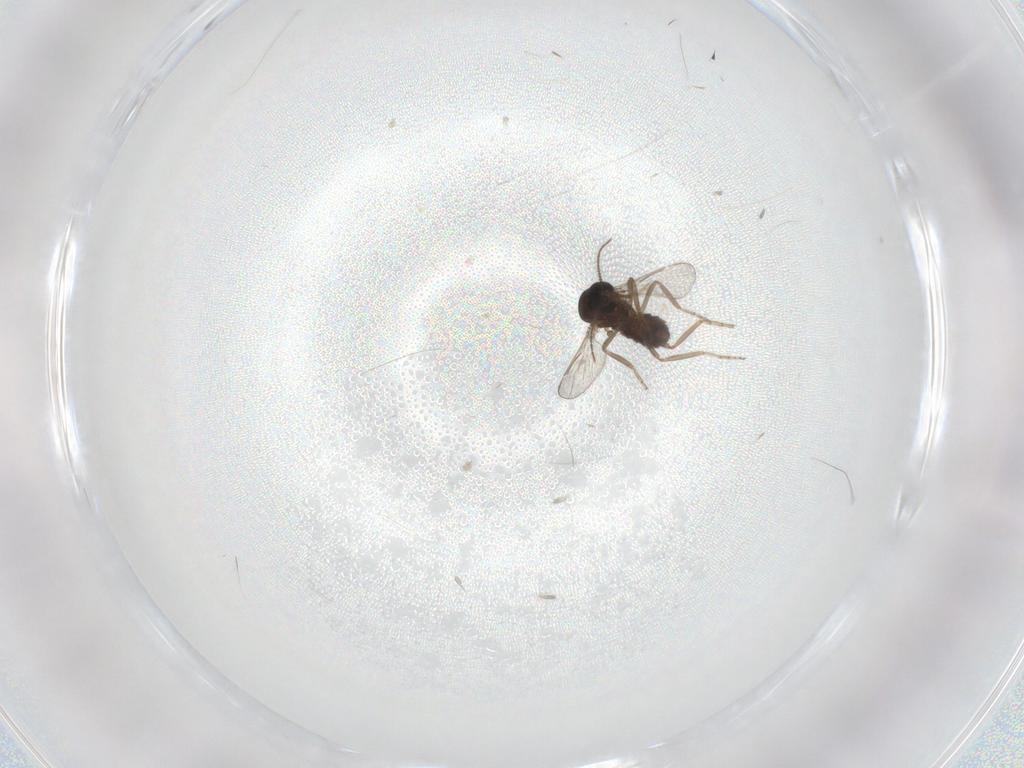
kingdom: Animalia
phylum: Arthropoda
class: Insecta
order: Diptera
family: Ceratopogonidae
